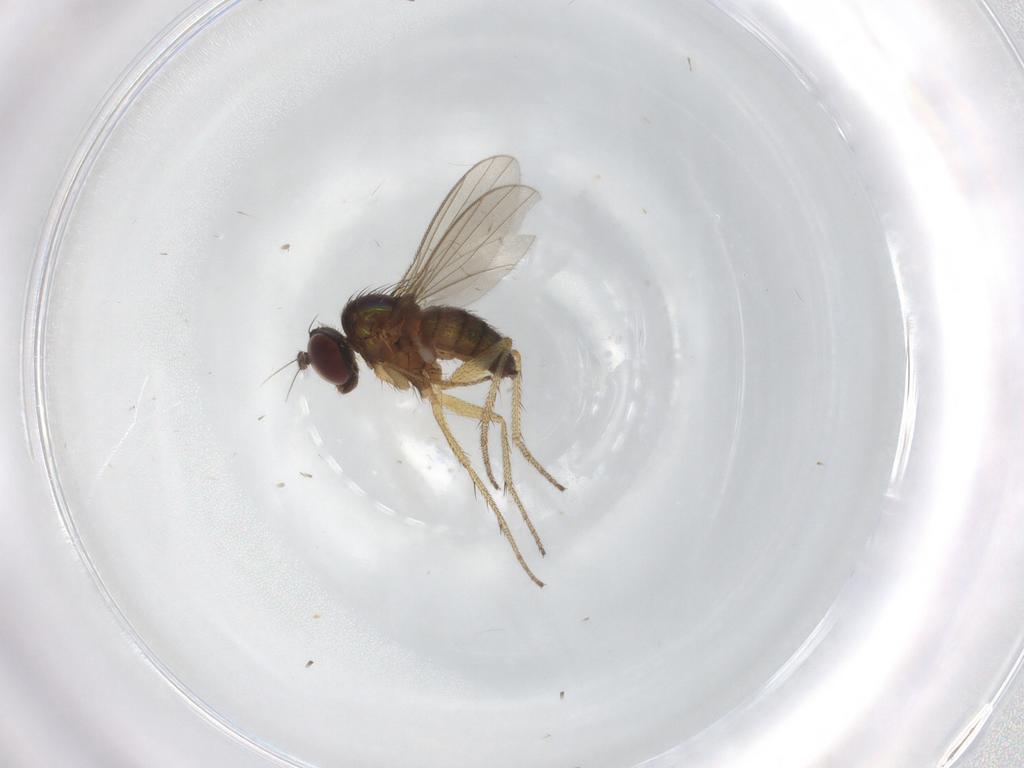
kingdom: Animalia
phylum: Arthropoda
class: Insecta
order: Diptera
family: Dolichopodidae
